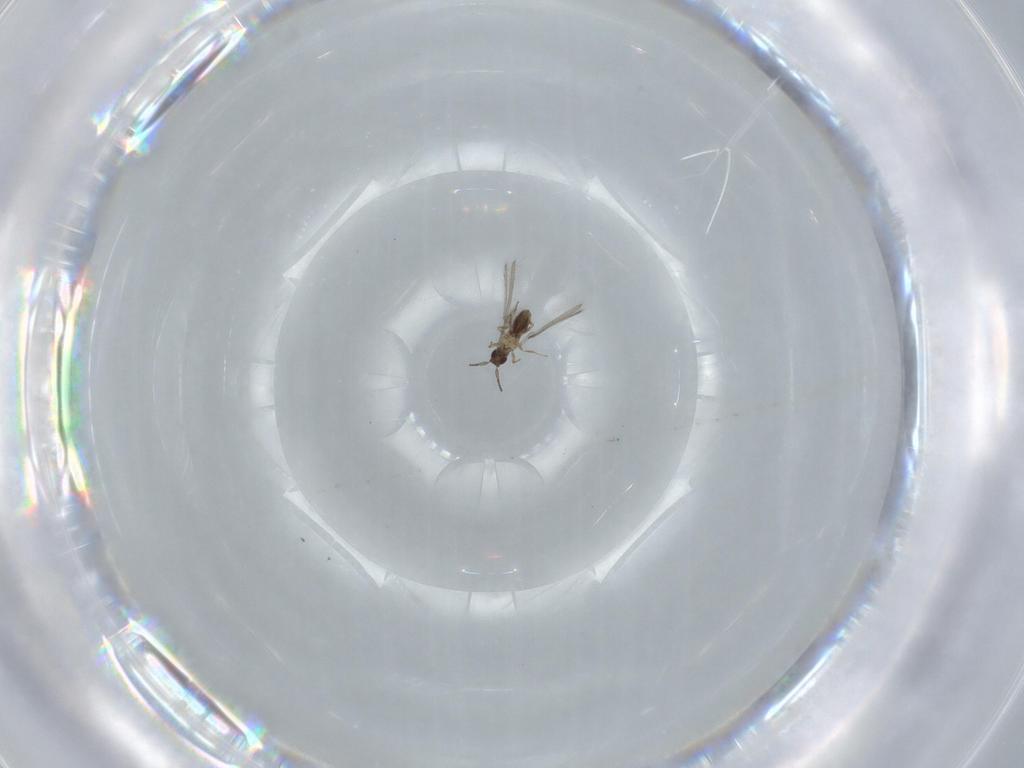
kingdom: Animalia
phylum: Arthropoda
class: Insecta
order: Hymenoptera
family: Mymaridae
